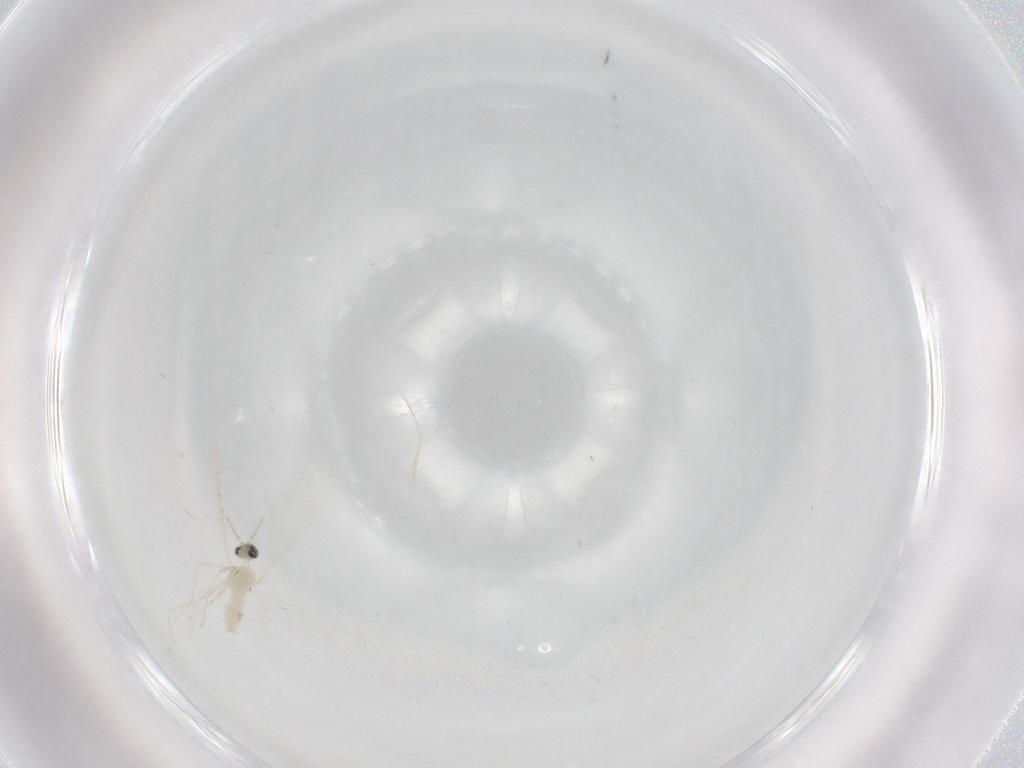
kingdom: Animalia
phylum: Arthropoda
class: Insecta
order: Diptera
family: Cecidomyiidae
